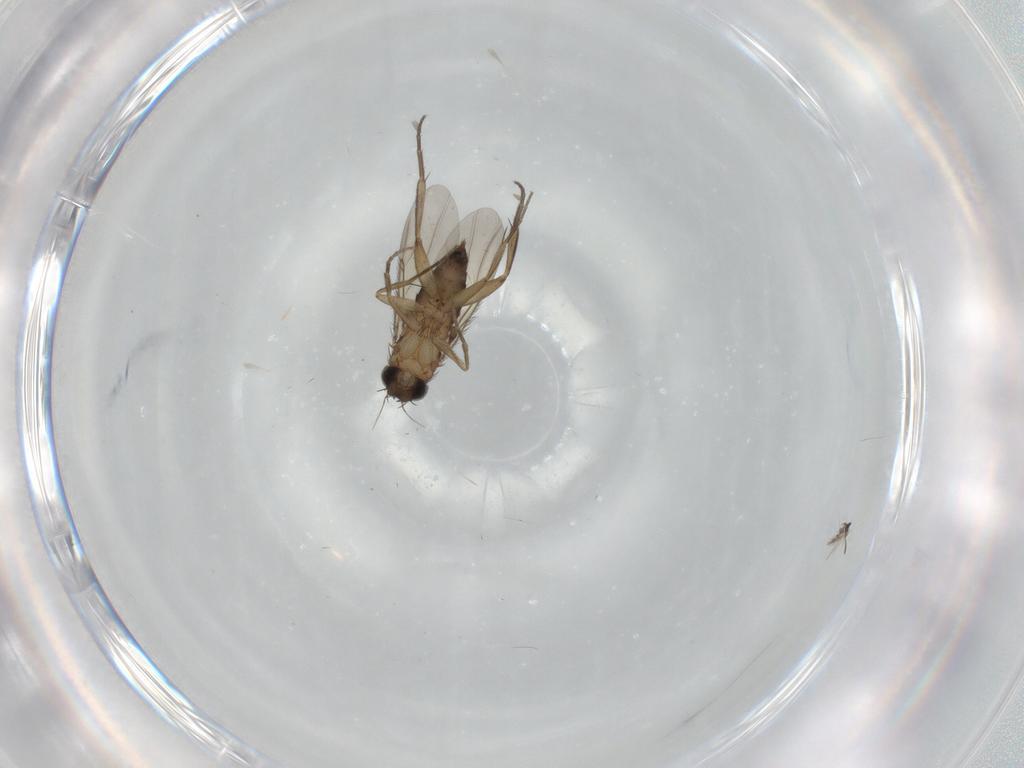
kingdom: Animalia
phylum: Arthropoda
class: Insecta
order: Diptera
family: Phoridae
